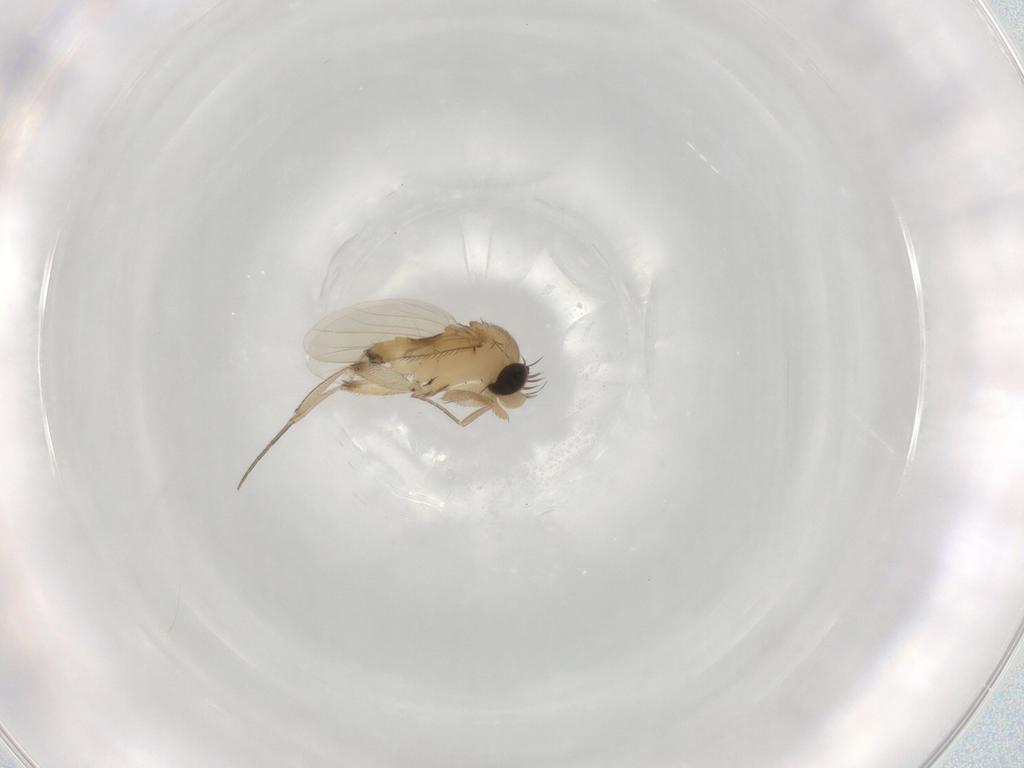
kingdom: Animalia
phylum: Arthropoda
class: Insecta
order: Diptera
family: Phoridae
